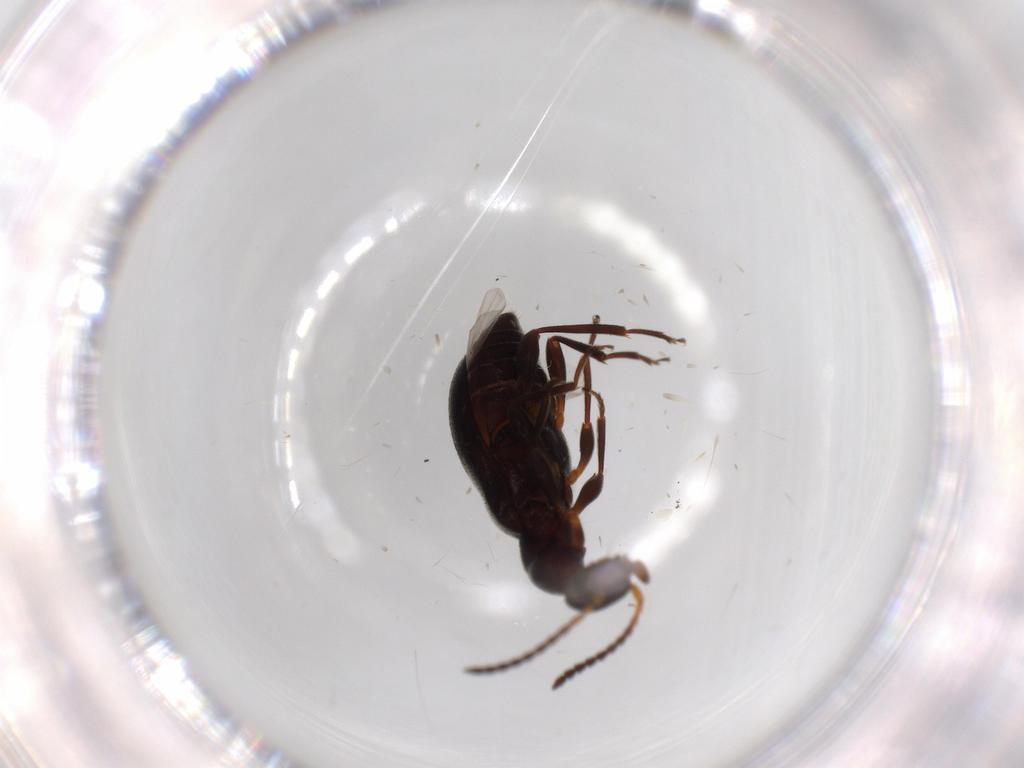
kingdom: Animalia
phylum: Arthropoda
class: Insecta
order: Coleoptera
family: Anthicidae
